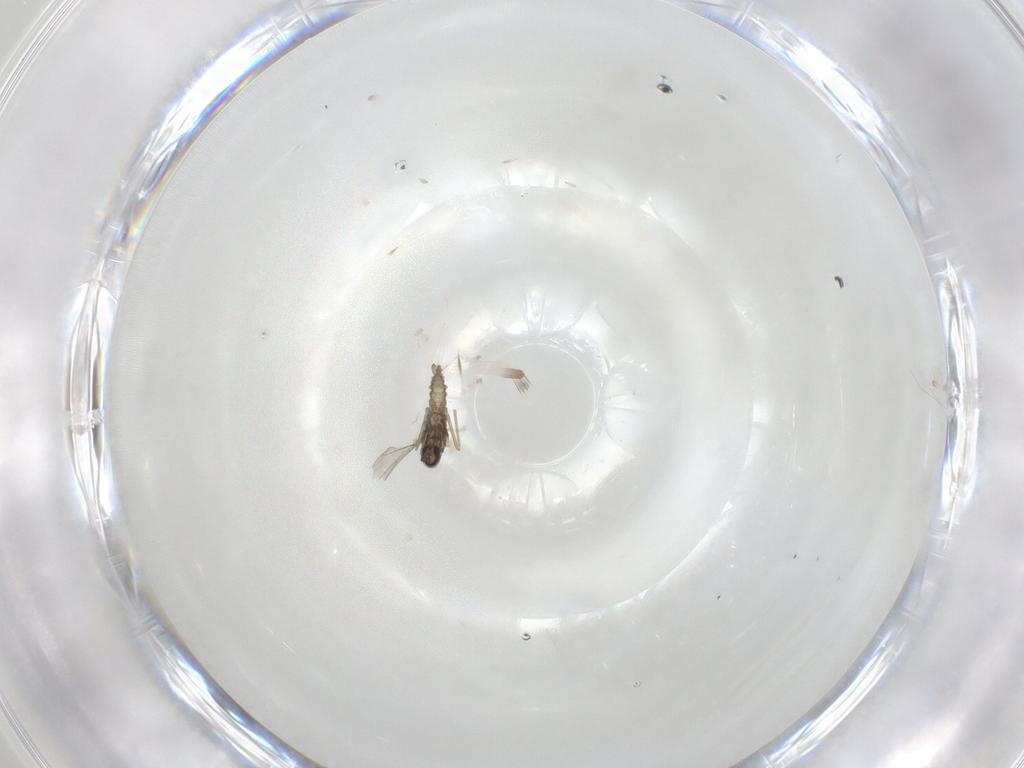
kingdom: Animalia
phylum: Arthropoda
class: Insecta
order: Diptera
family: Cecidomyiidae
